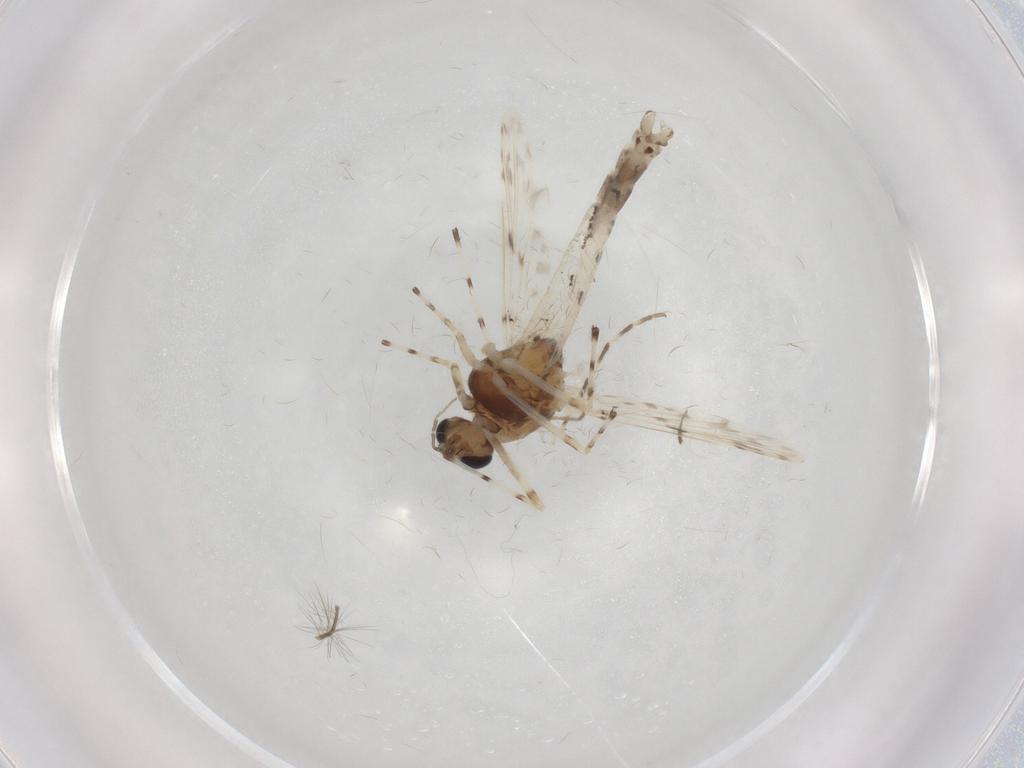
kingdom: Animalia
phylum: Arthropoda
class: Insecta
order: Diptera
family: Chironomidae
